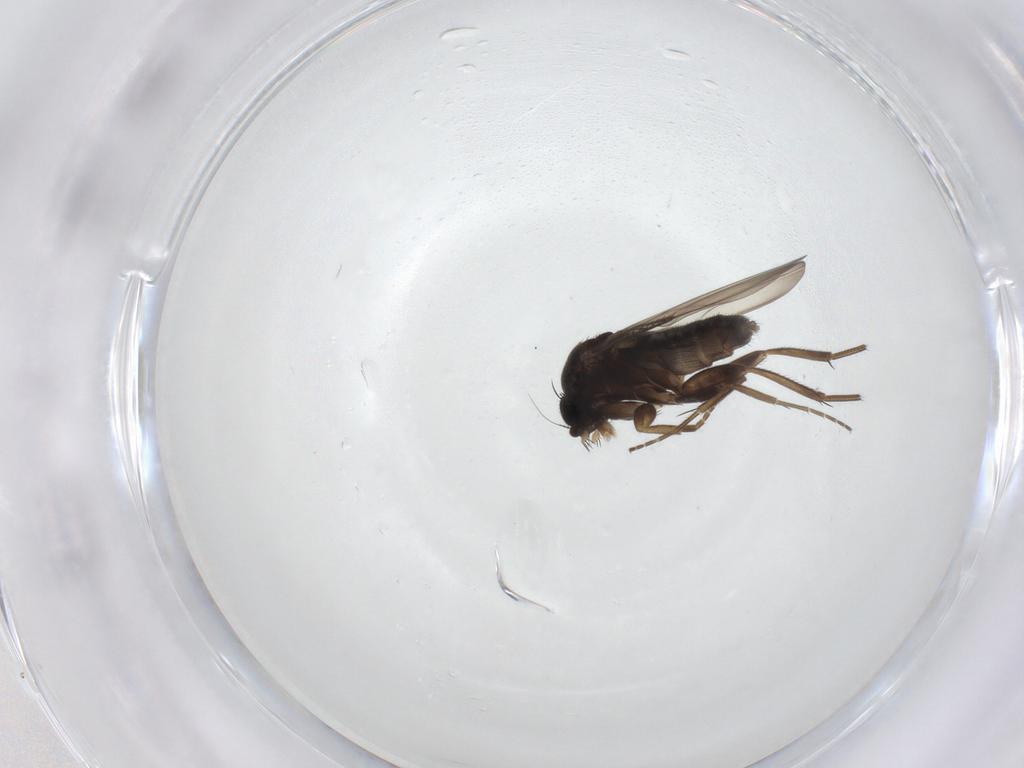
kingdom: Animalia
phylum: Arthropoda
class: Insecta
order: Diptera
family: Phoridae
